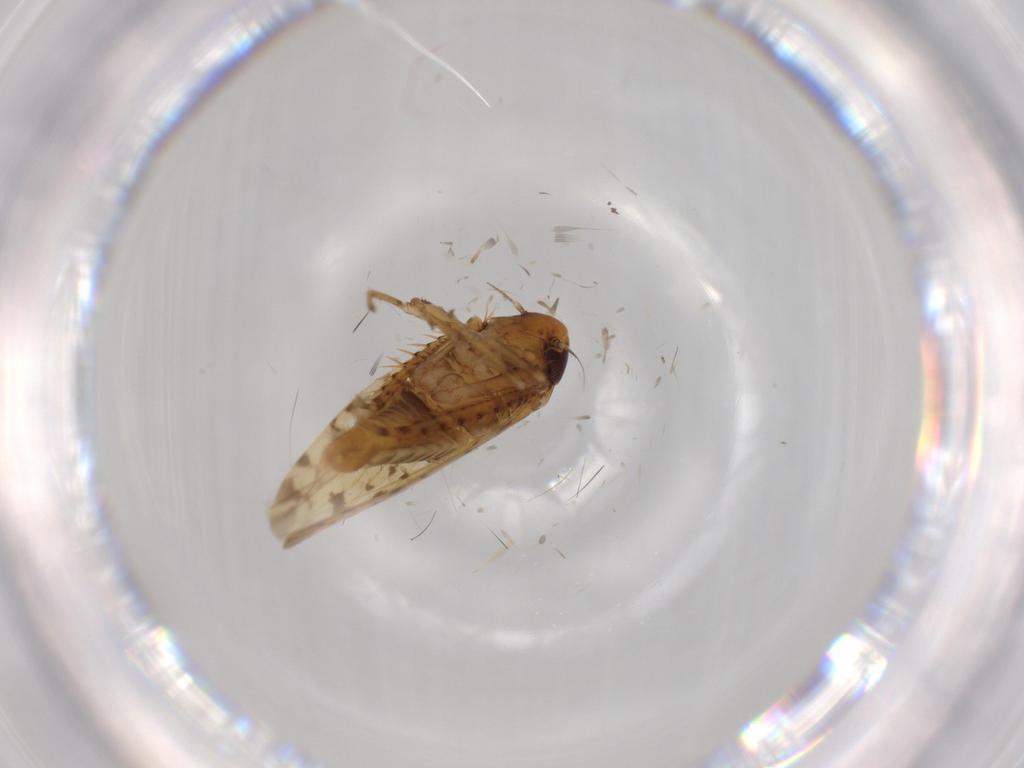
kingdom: Animalia
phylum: Arthropoda
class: Insecta
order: Hemiptera
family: Cicadellidae
